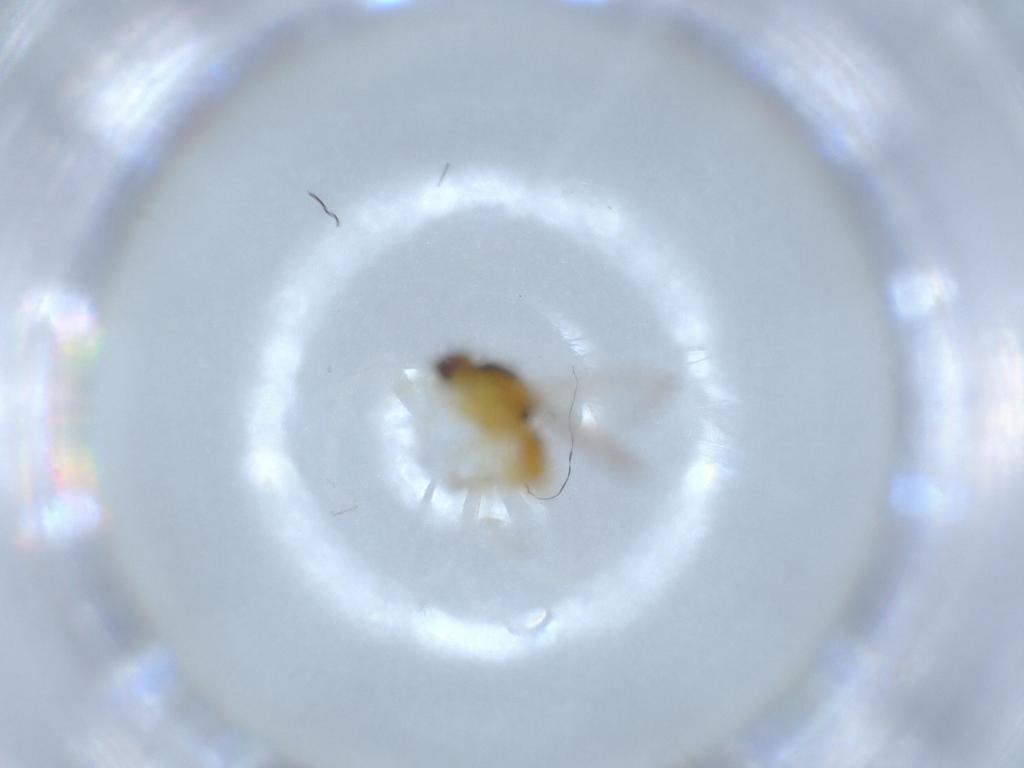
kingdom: Animalia
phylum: Arthropoda
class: Insecta
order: Diptera
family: Chloropidae
